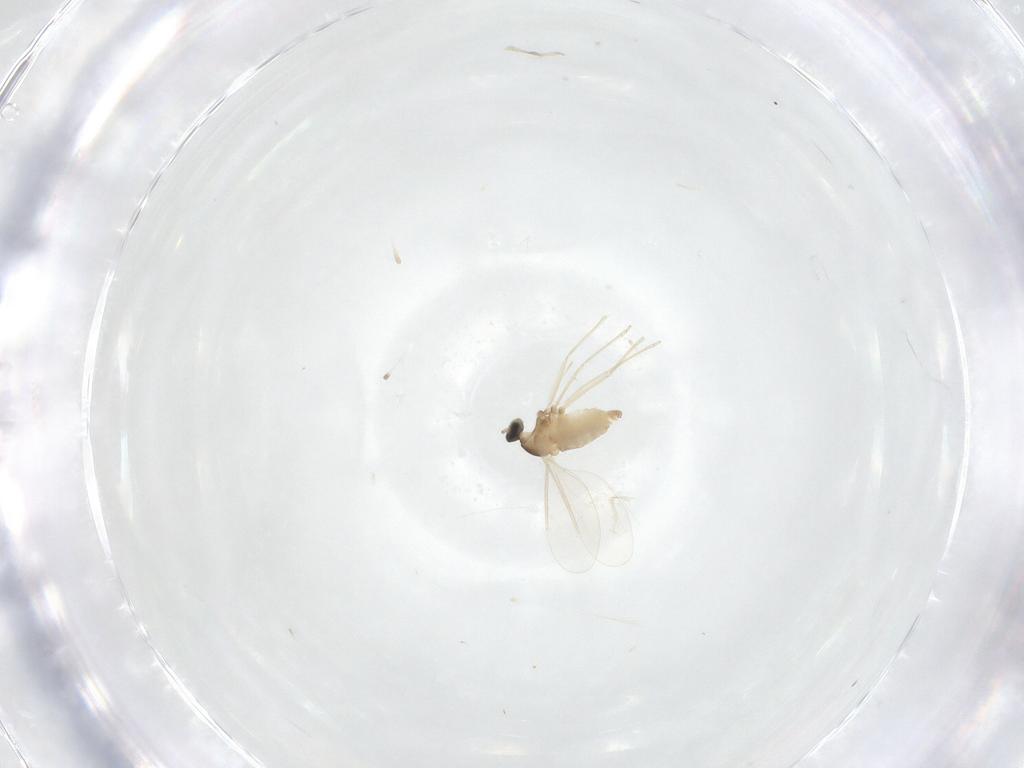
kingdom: Animalia
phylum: Arthropoda
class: Insecta
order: Diptera
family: Cecidomyiidae
